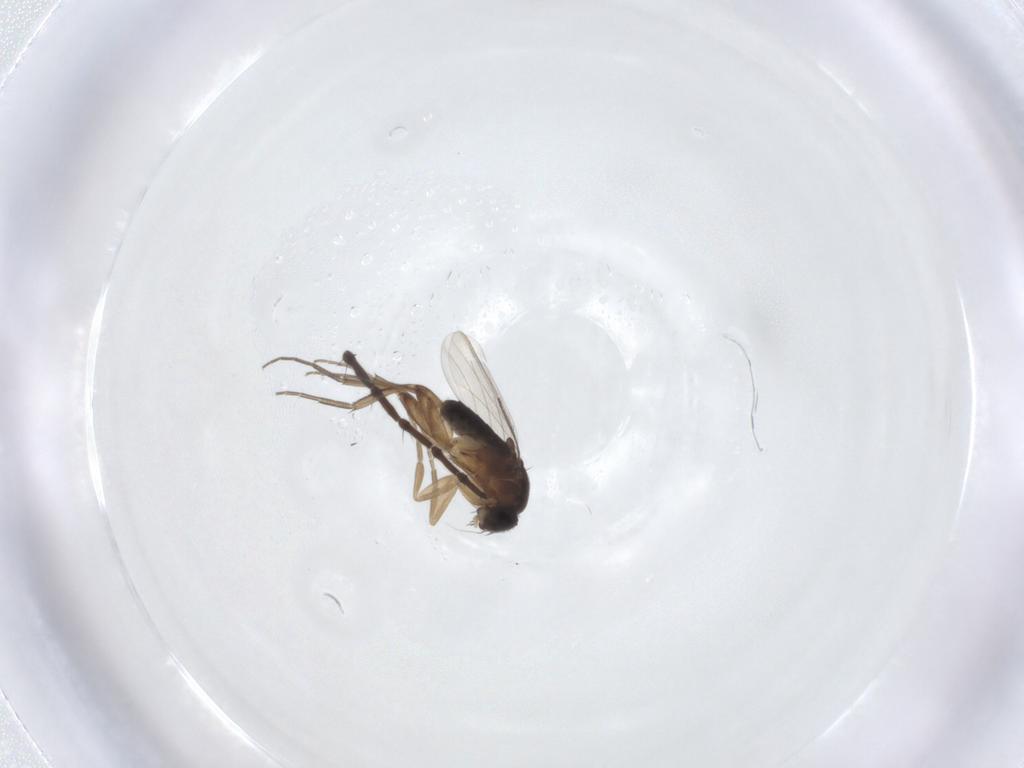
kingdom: Animalia
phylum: Arthropoda
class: Insecta
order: Diptera
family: Phoridae
